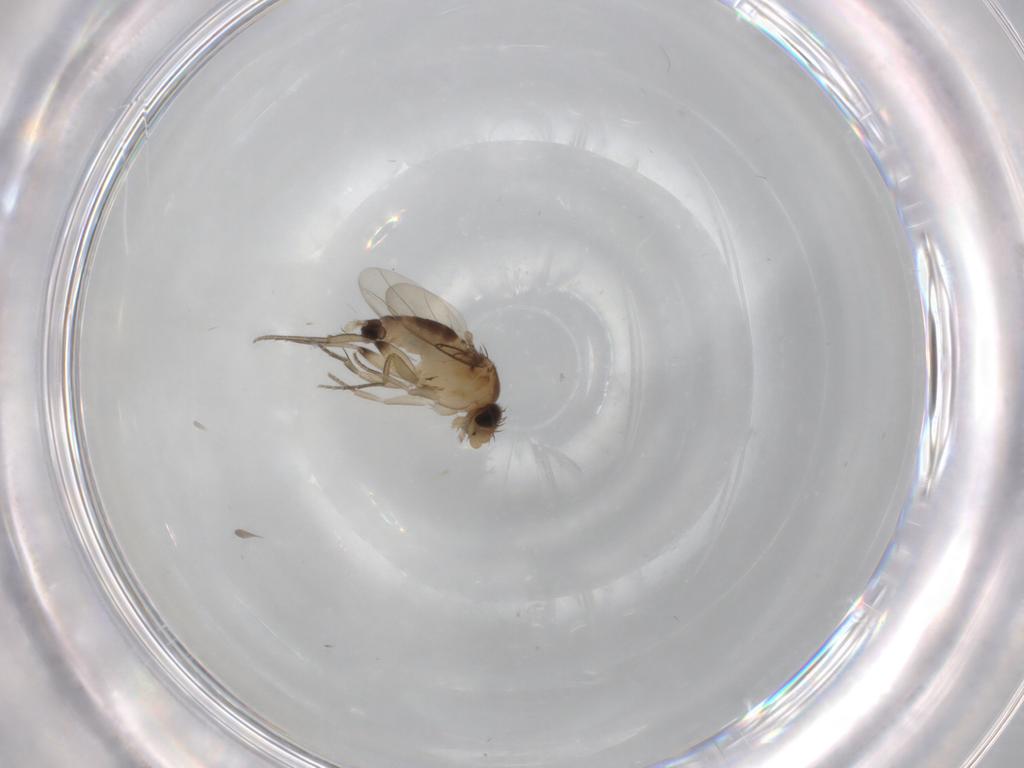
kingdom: Animalia
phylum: Arthropoda
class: Insecta
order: Diptera
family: Phoridae
